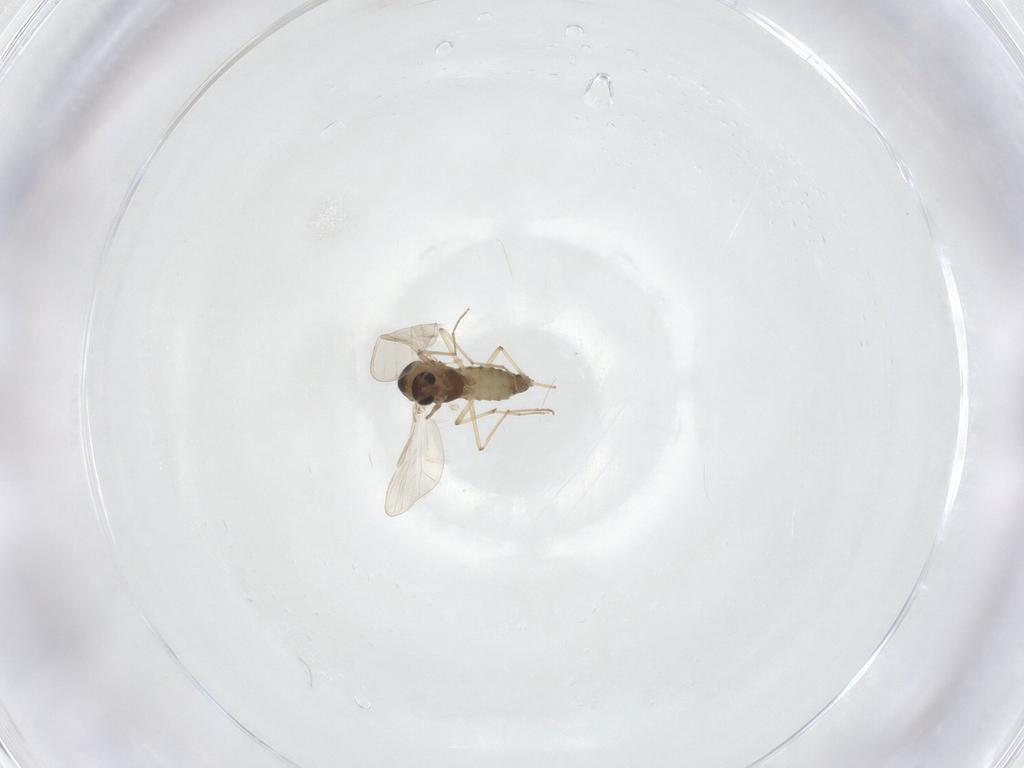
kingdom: Animalia
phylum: Arthropoda
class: Insecta
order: Diptera
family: Chironomidae
